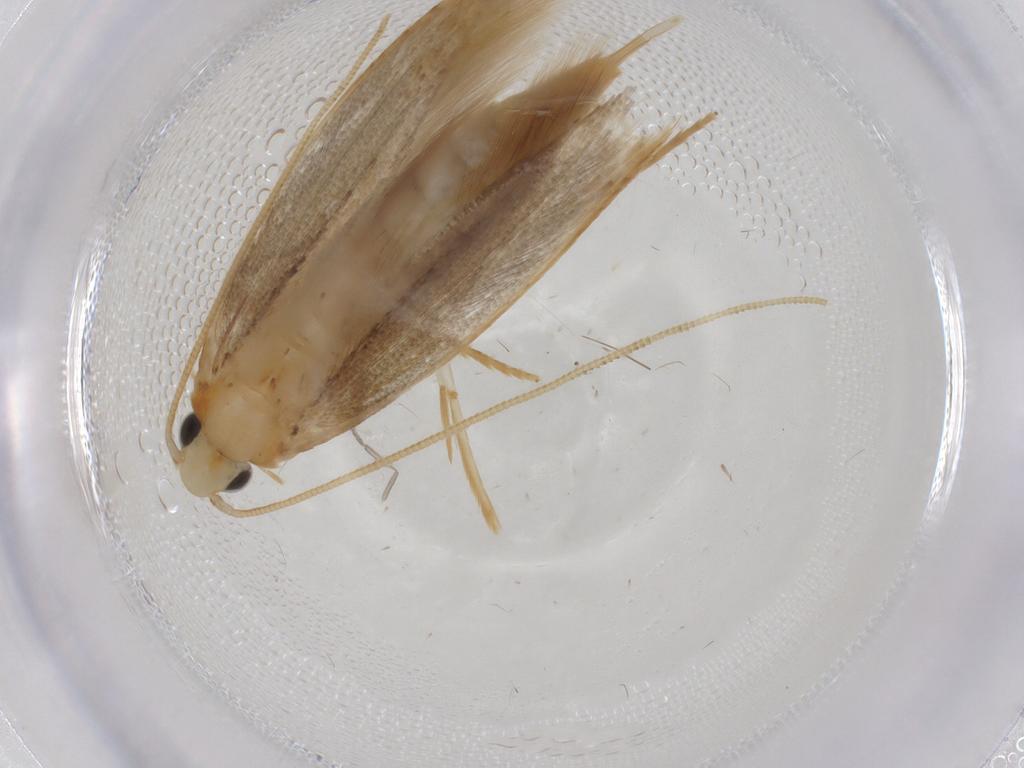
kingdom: Animalia
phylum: Arthropoda
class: Insecta
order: Lepidoptera
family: Tineidae
